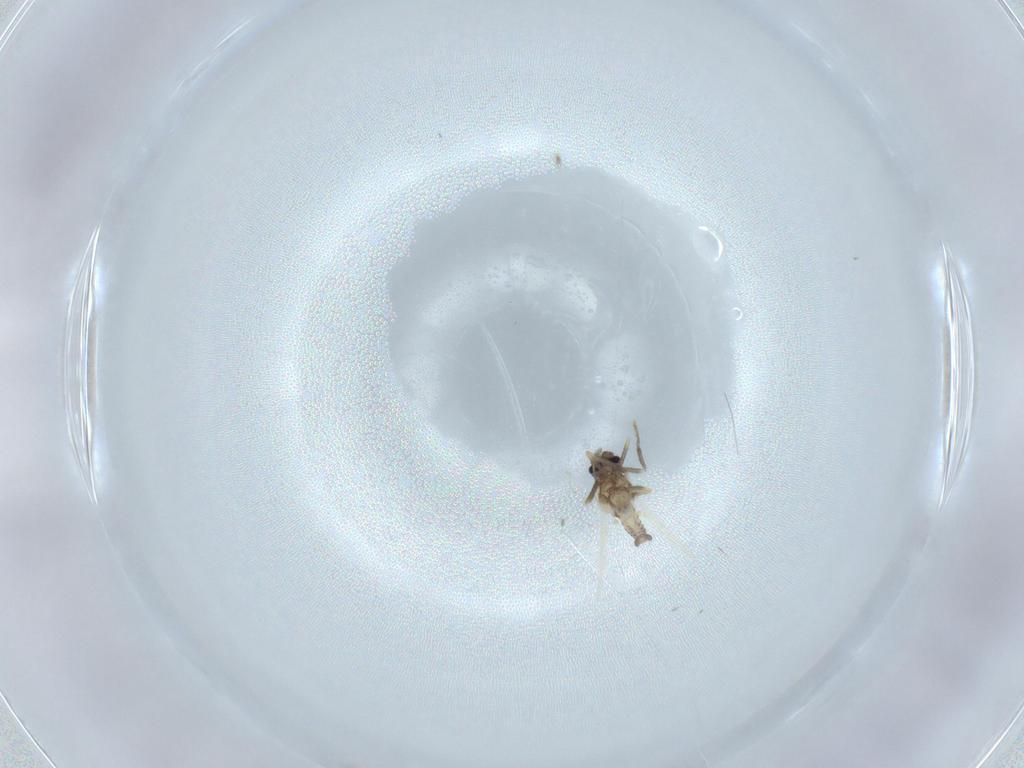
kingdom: Animalia
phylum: Arthropoda
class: Insecta
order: Diptera
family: Ceratopogonidae
